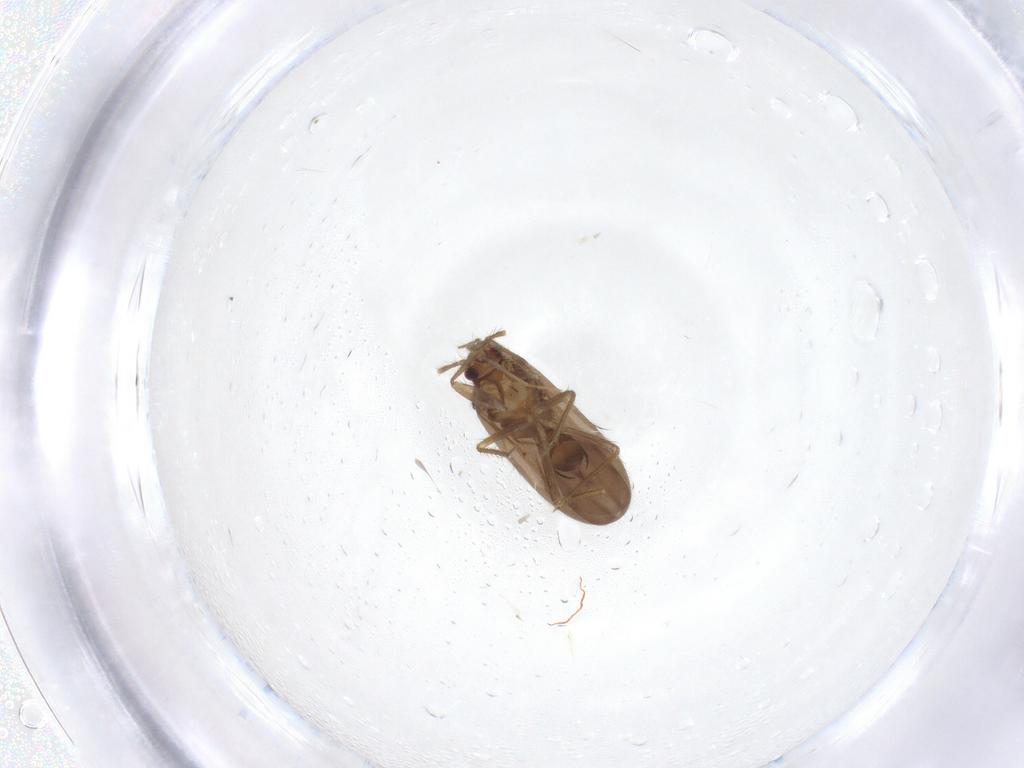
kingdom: Animalia
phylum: Arthropoda
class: Insecta
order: Hemiptera
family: Ceratocombidae
